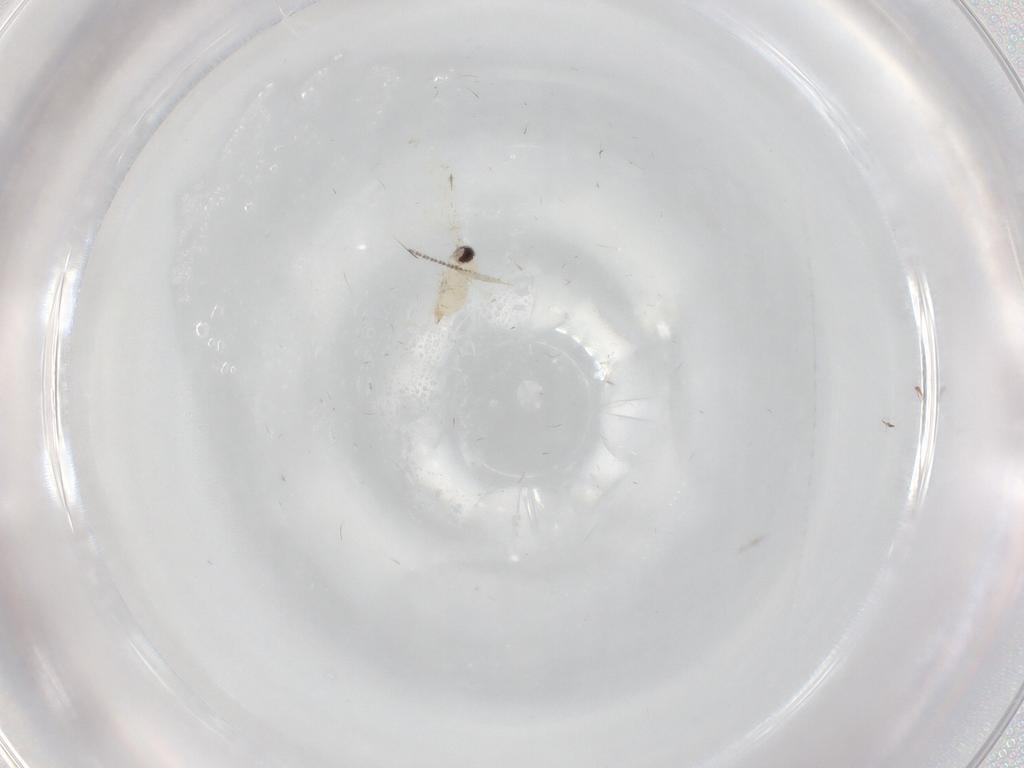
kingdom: Animalia
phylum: Arthropoda
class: Insecta
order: Diptera
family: Cecidomyiidae
